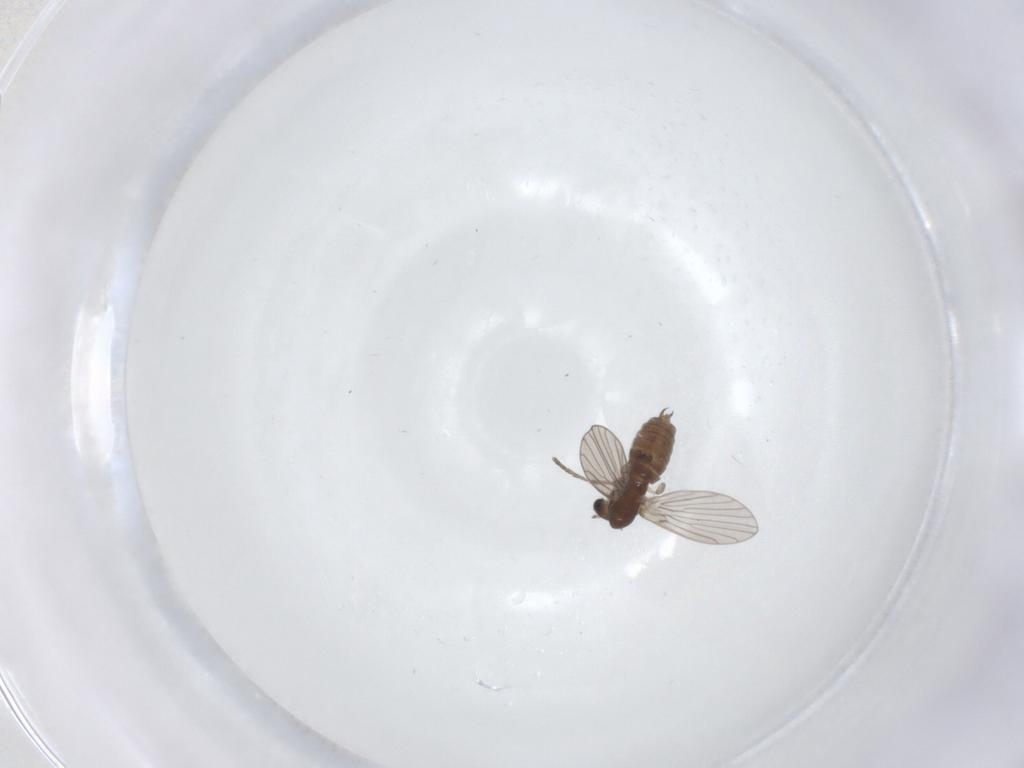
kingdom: Animalia
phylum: Arthropoda
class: Insecta
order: Diptera
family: Psychodidae
